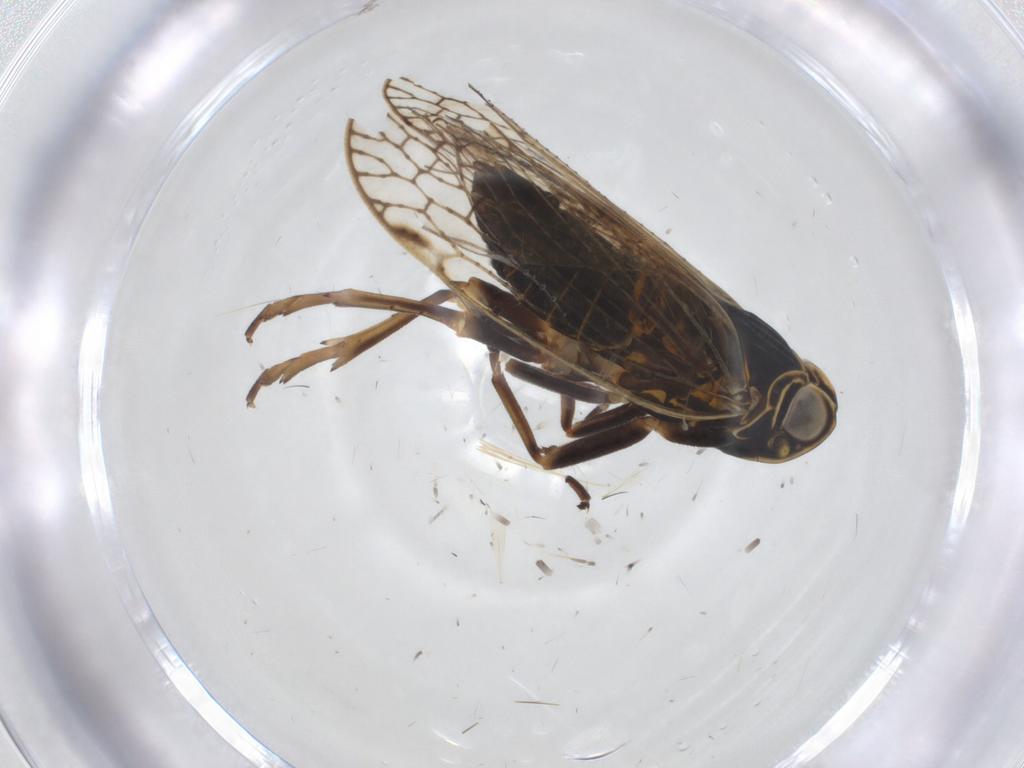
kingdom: Animalia
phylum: Arthropoda
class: Insecta
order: Hemiptera
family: Cixiidae
